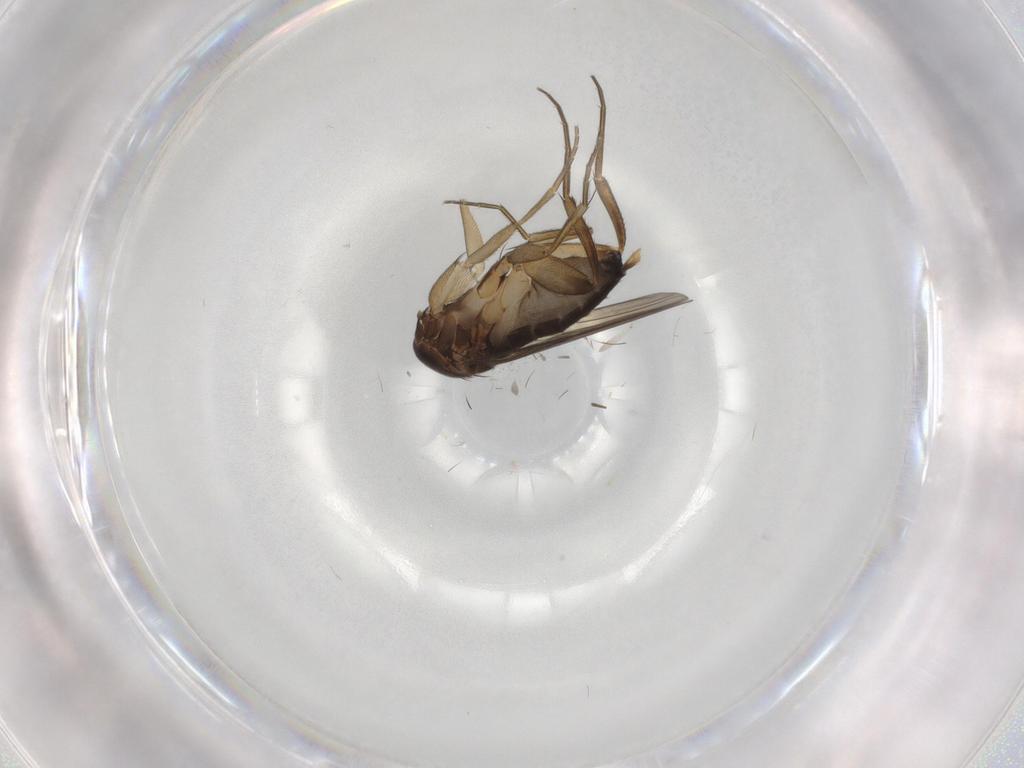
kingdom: Animalia
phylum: Arthropoda
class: Insecta
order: Diptera
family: Phoridae
